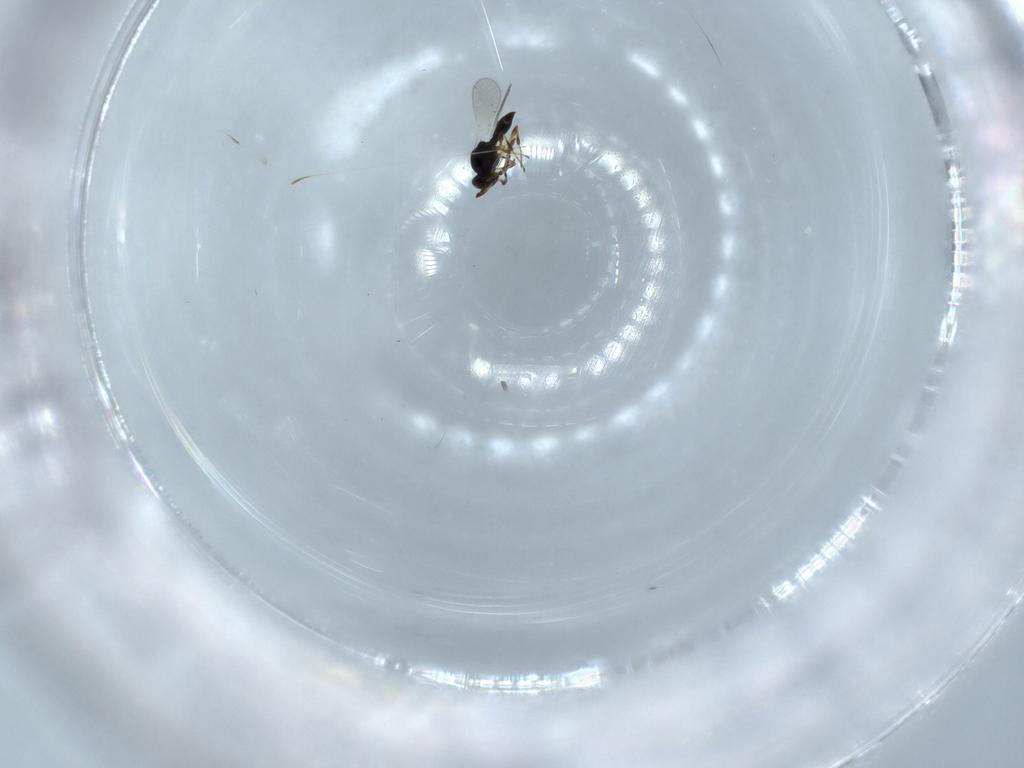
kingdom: Animalia
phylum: Arthropoda
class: Insecta
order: Hymenoptera
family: Platygastridae
